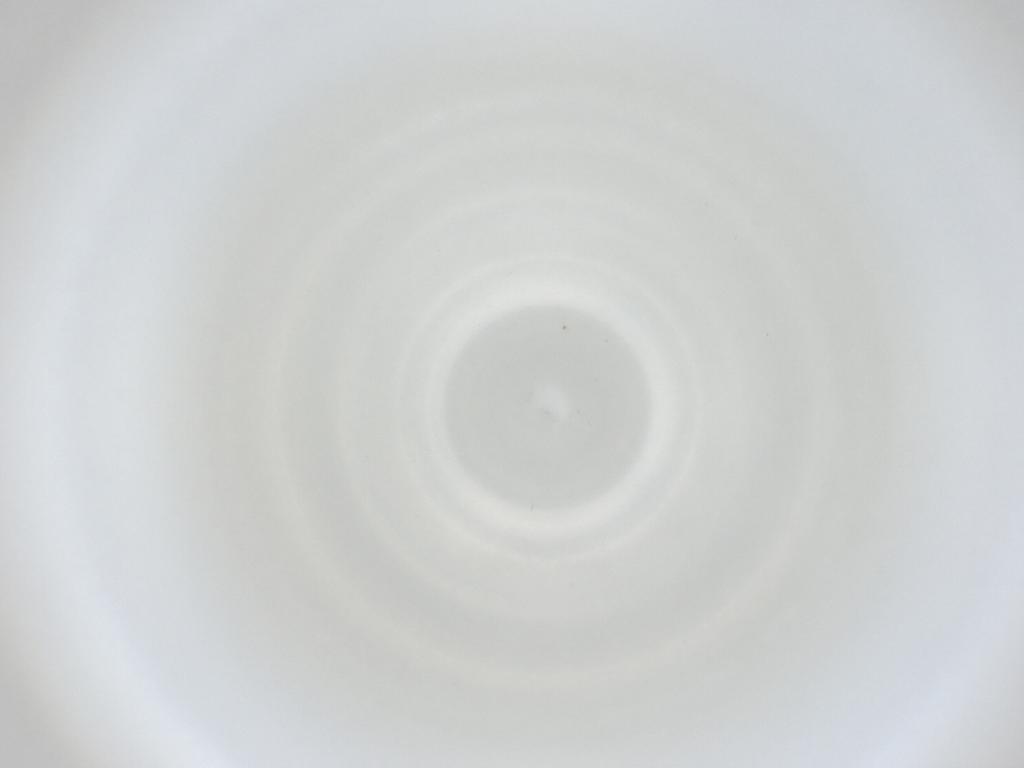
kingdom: Animalia
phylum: Arthropoda
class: Insecta
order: Diptera
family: Cecidomyiidae
